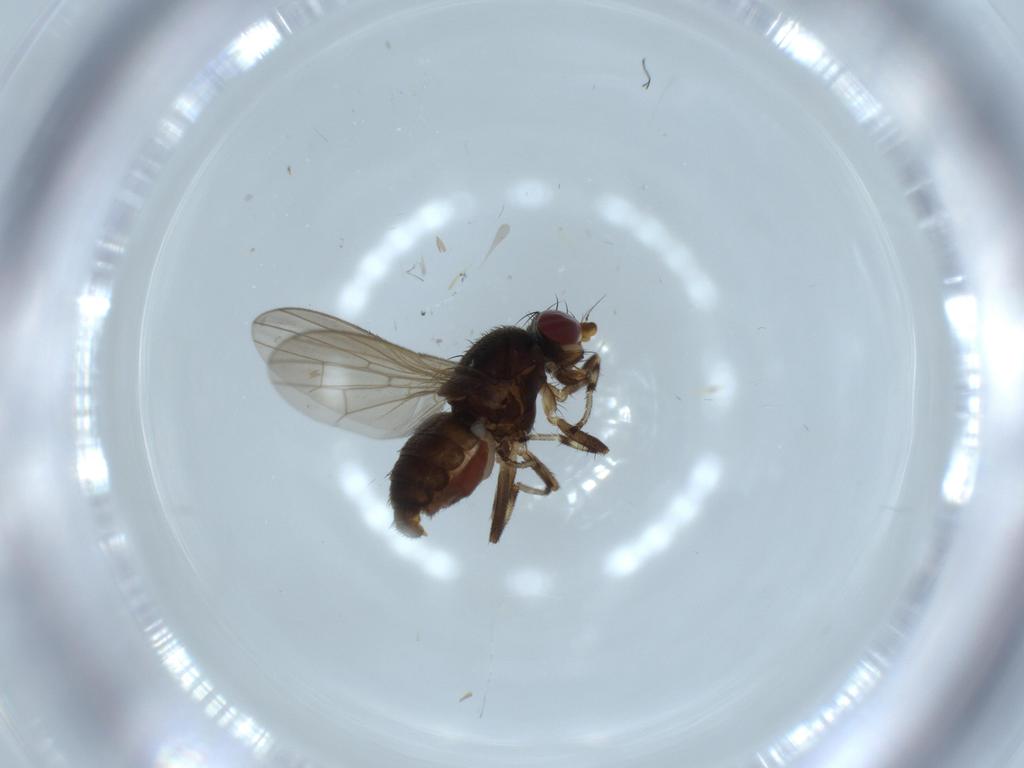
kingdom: Animalia
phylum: Arthropoda
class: Insecta
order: Diptera
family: Heleomyzidae
